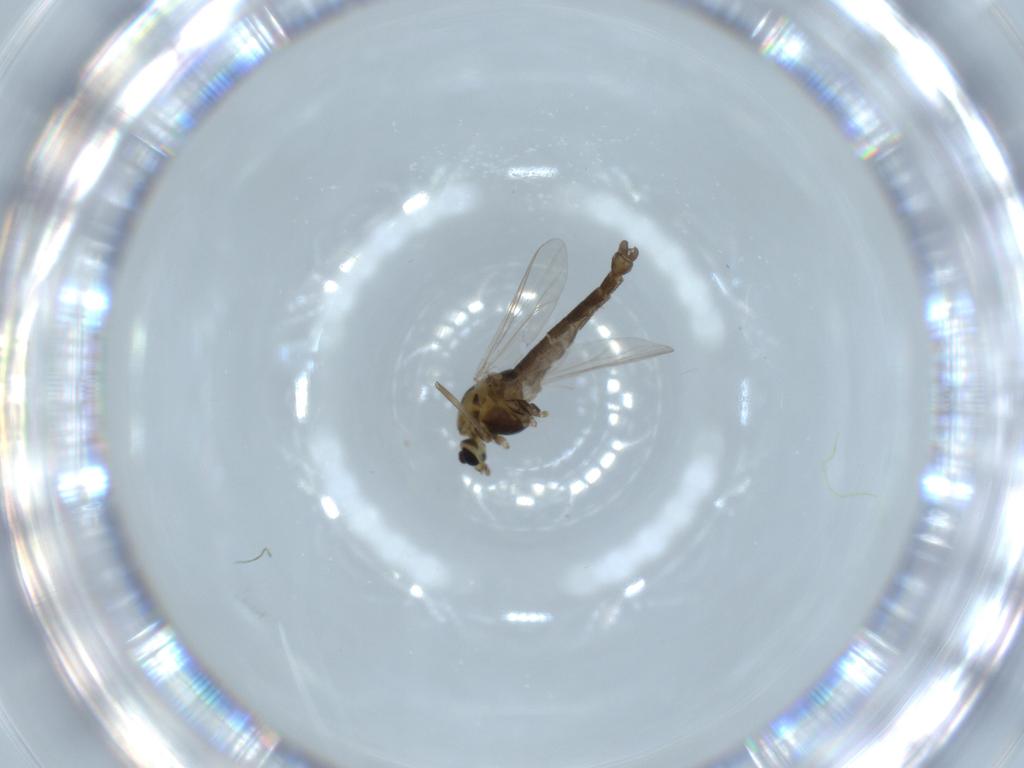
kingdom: Animalia
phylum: Arthropoda
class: Insecta
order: Diptera
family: Chironomidae
